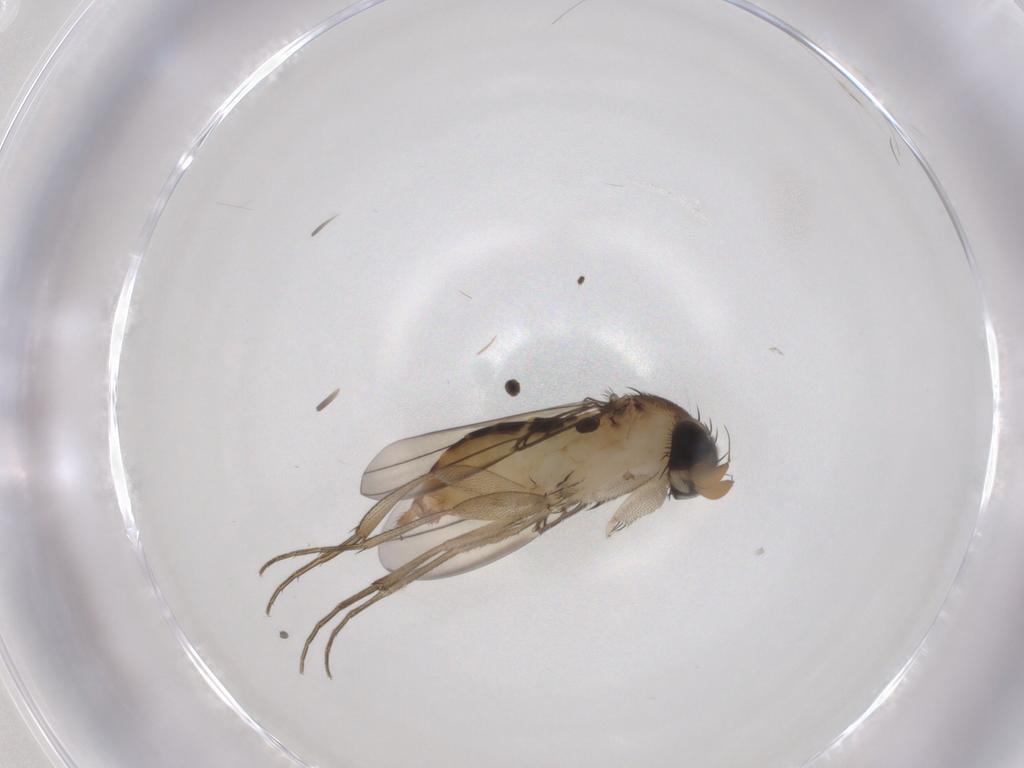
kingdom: Animalia
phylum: Arthropoda
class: Insecta
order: Diptera
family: Phoridae
